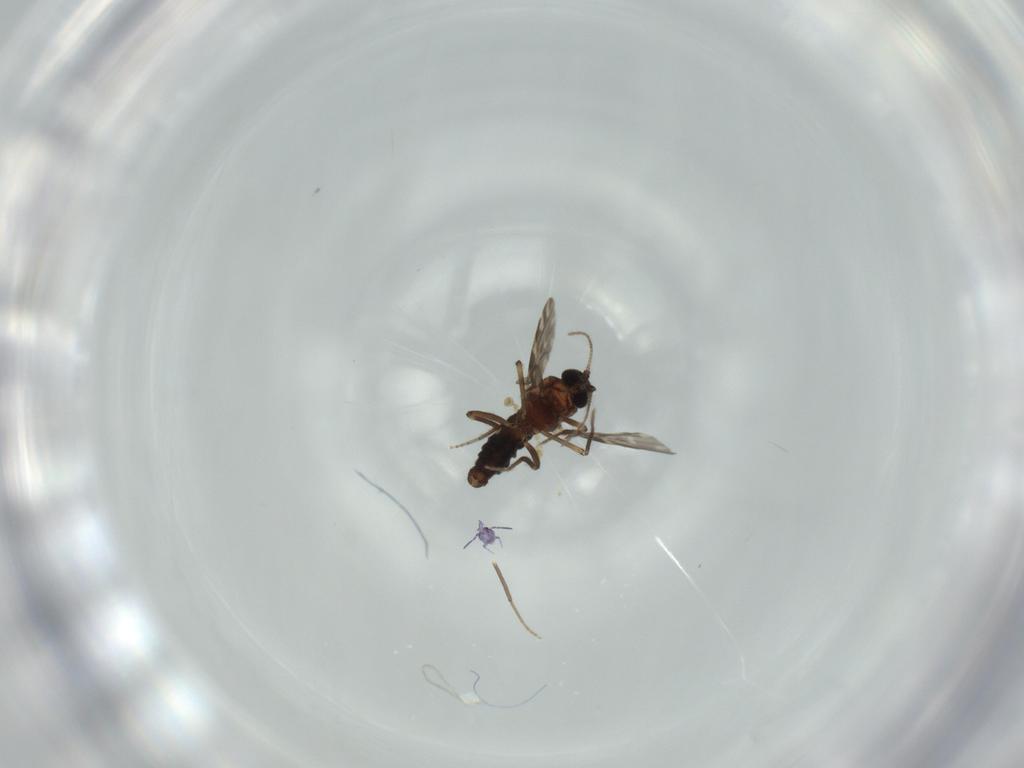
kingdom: Animalia
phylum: Arthropoda
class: Insecta
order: Diptera
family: Ceratopogonidae
